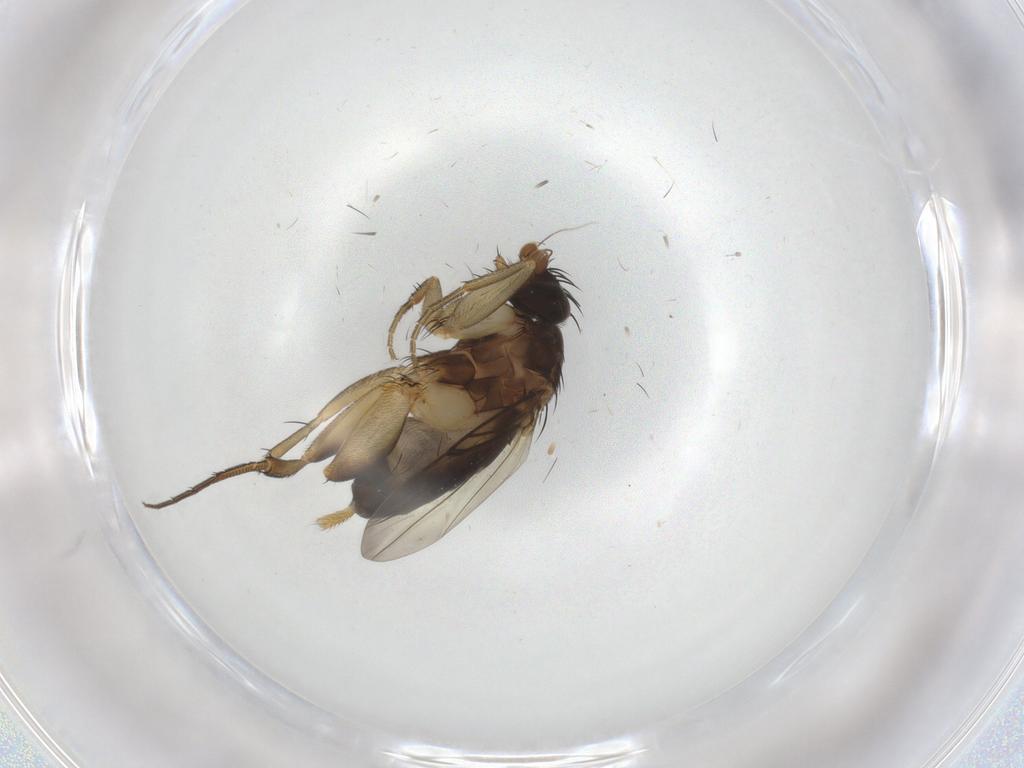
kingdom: Animalia
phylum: Arthropoda
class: Insecta
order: Diptera
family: Phoridae
